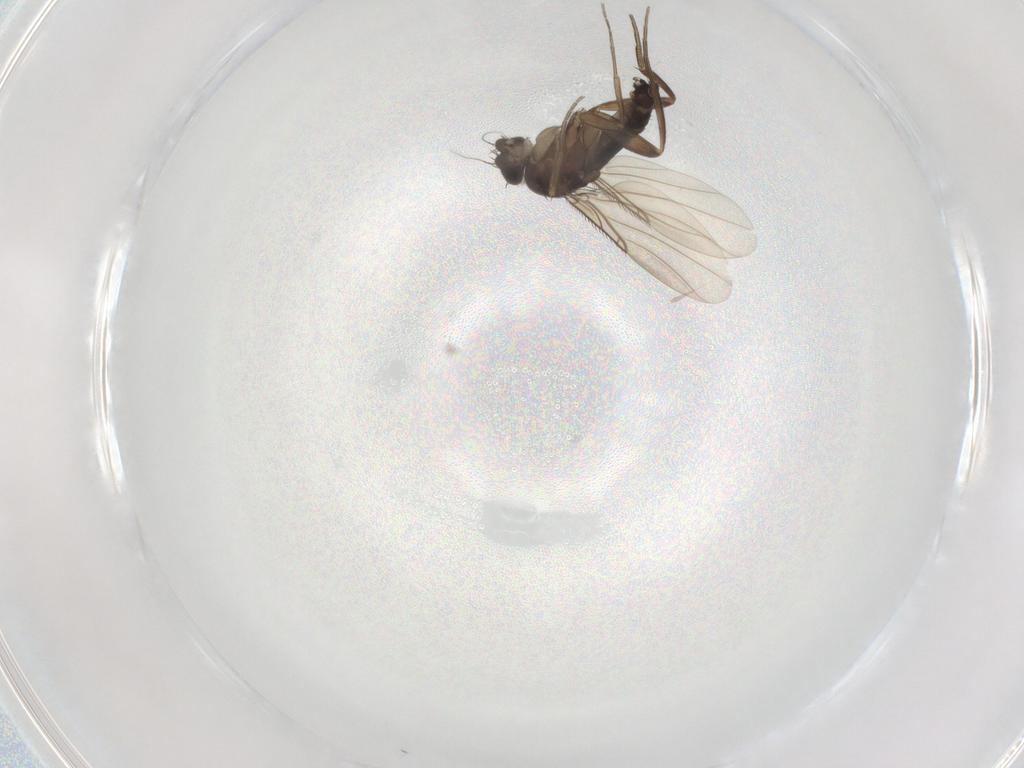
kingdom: Animalia
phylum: Arthropoda
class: Insecta
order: Diptera
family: Phoridae
